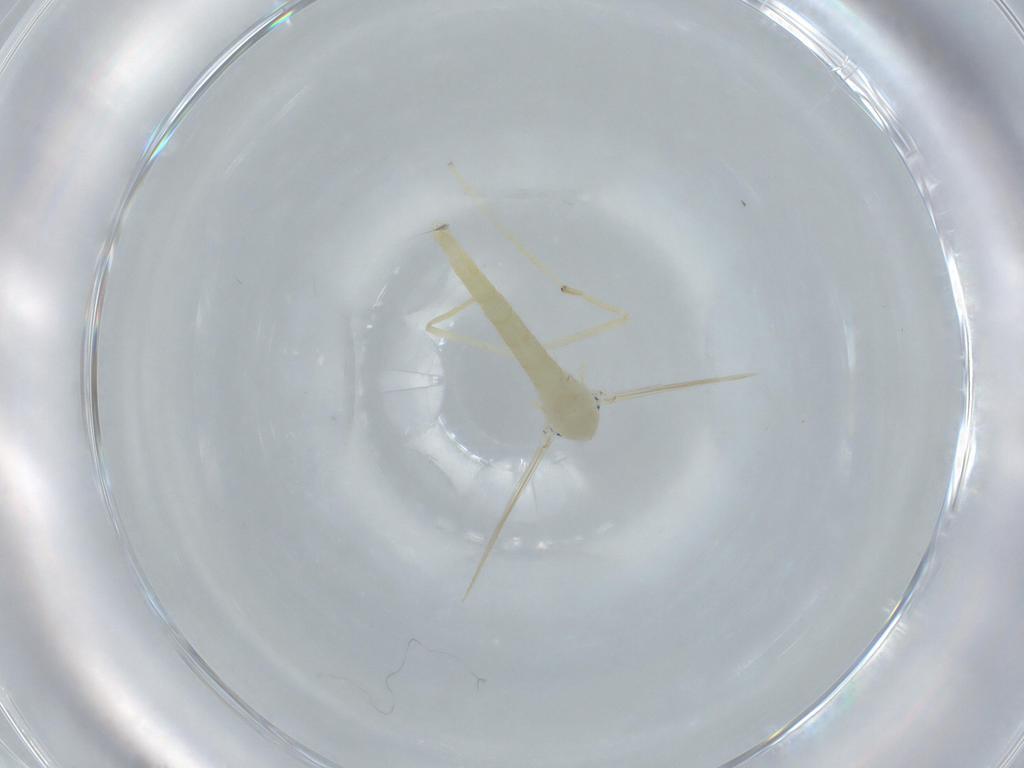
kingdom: Animalia
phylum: Arthropoda
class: Insecta
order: Diptera
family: Chironomidae
